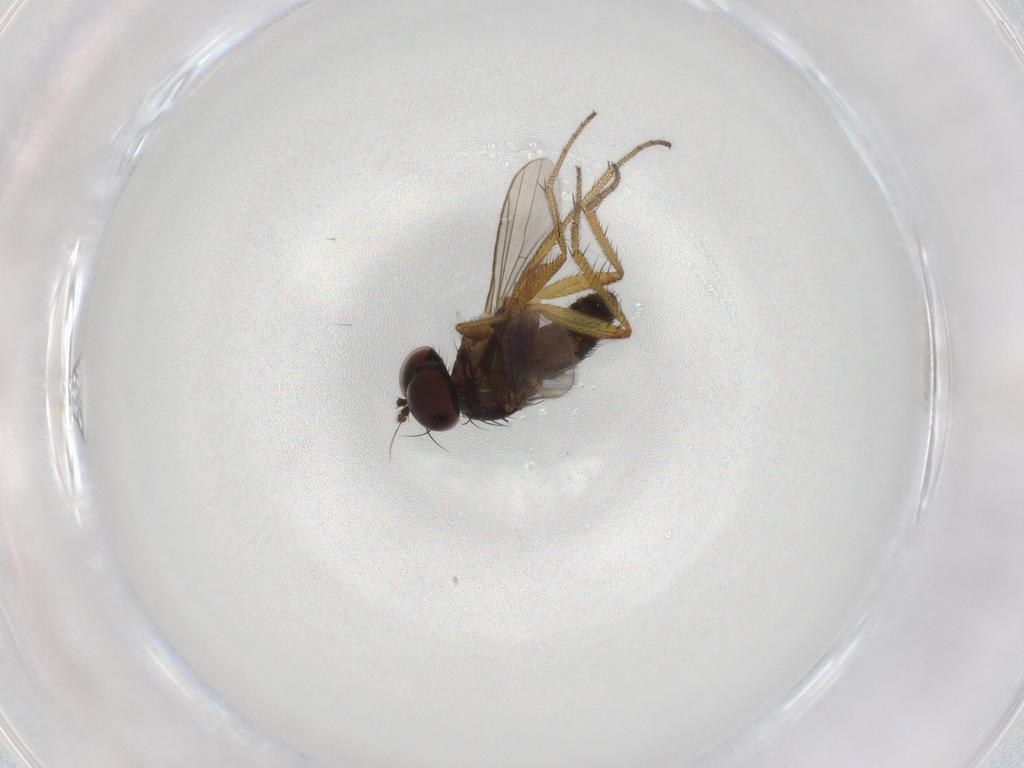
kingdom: Animalia
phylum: Arthropoda
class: Insecta
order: Diptera
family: Dolichopodidae
